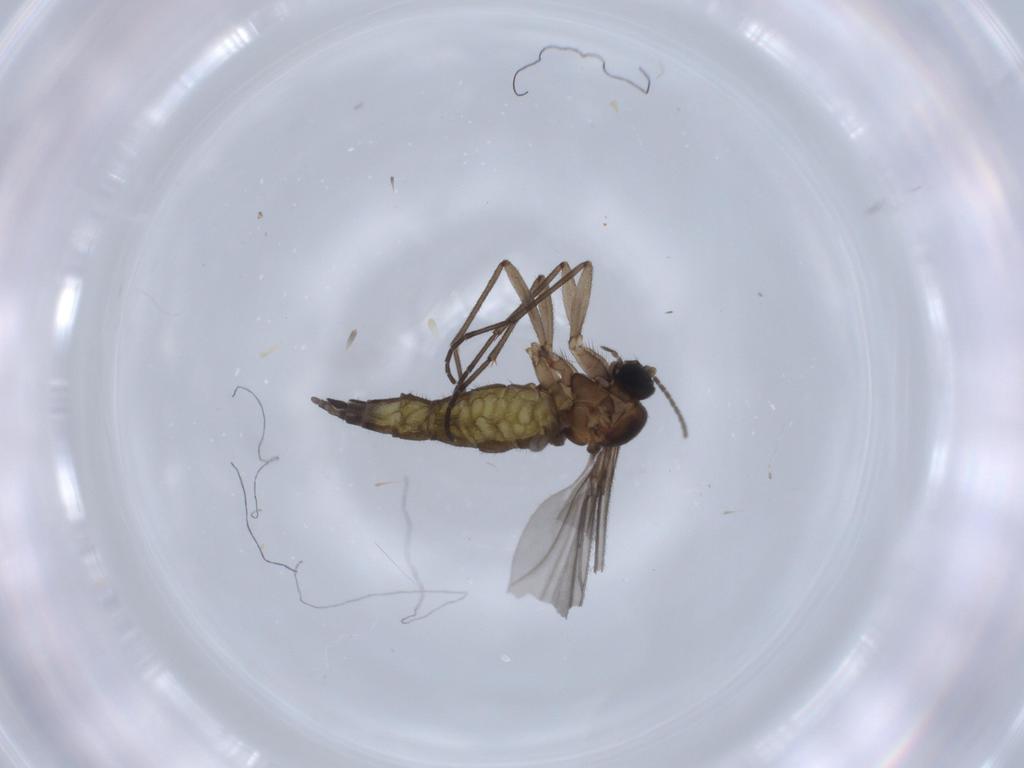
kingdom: Animalia
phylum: Arthropoda
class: Insecta
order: Diptera
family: Sciaridae
